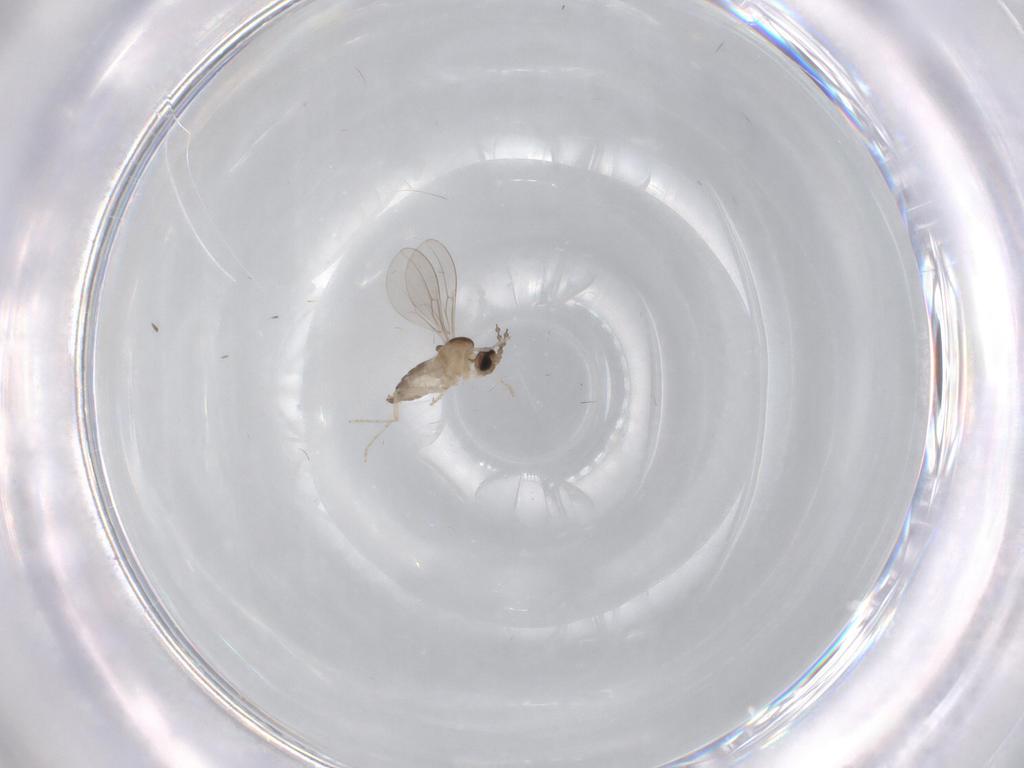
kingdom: Animalia
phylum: Arthropoda
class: Insecta
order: Diptera
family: Cecidomyiidae
